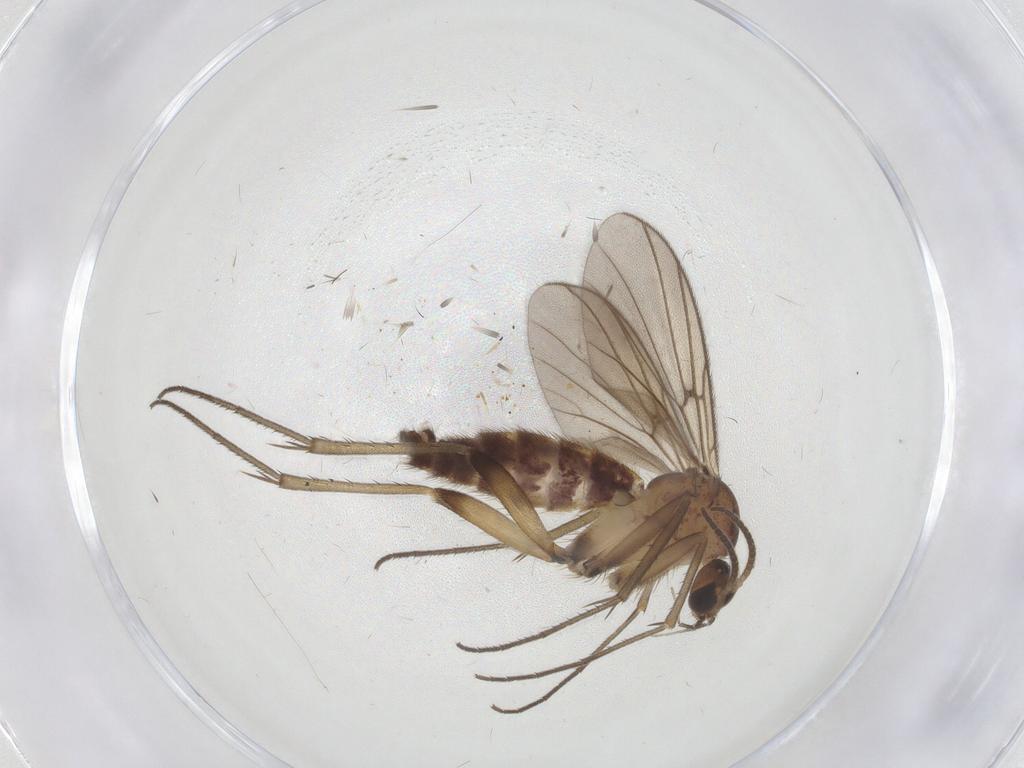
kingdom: Animalia
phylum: Arthropoda
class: Insecta
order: Diptera
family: Mycetophilidae
